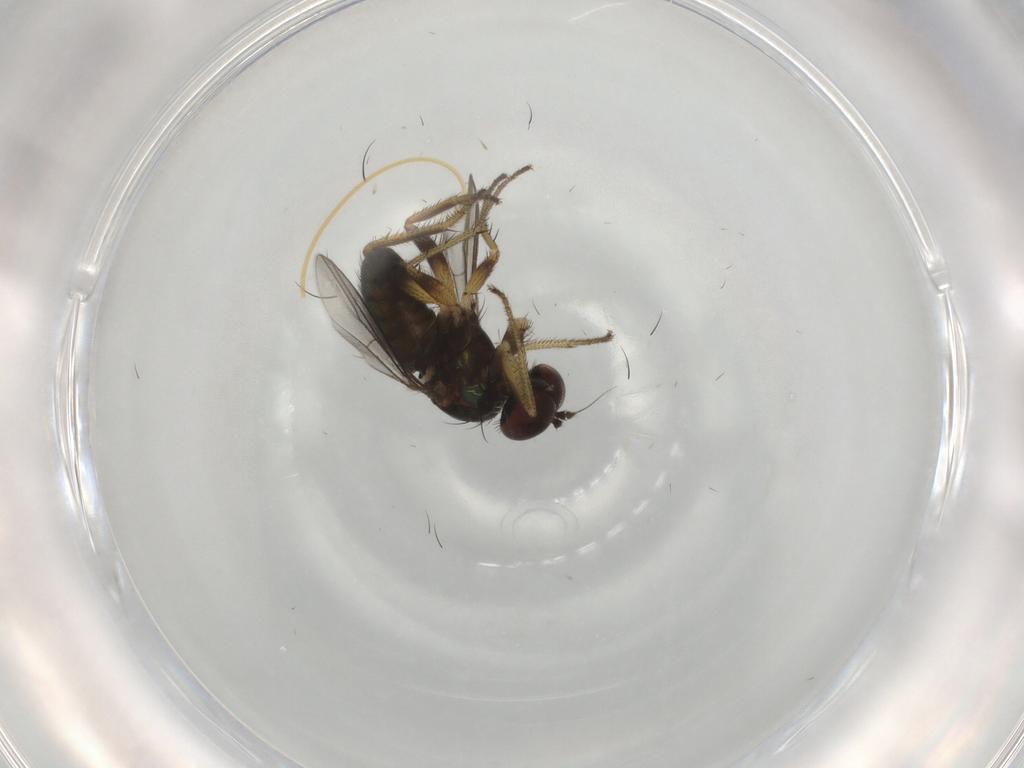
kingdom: Animalia
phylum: Arthropoda
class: Insecta
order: Diptera
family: Dolichopodidae
